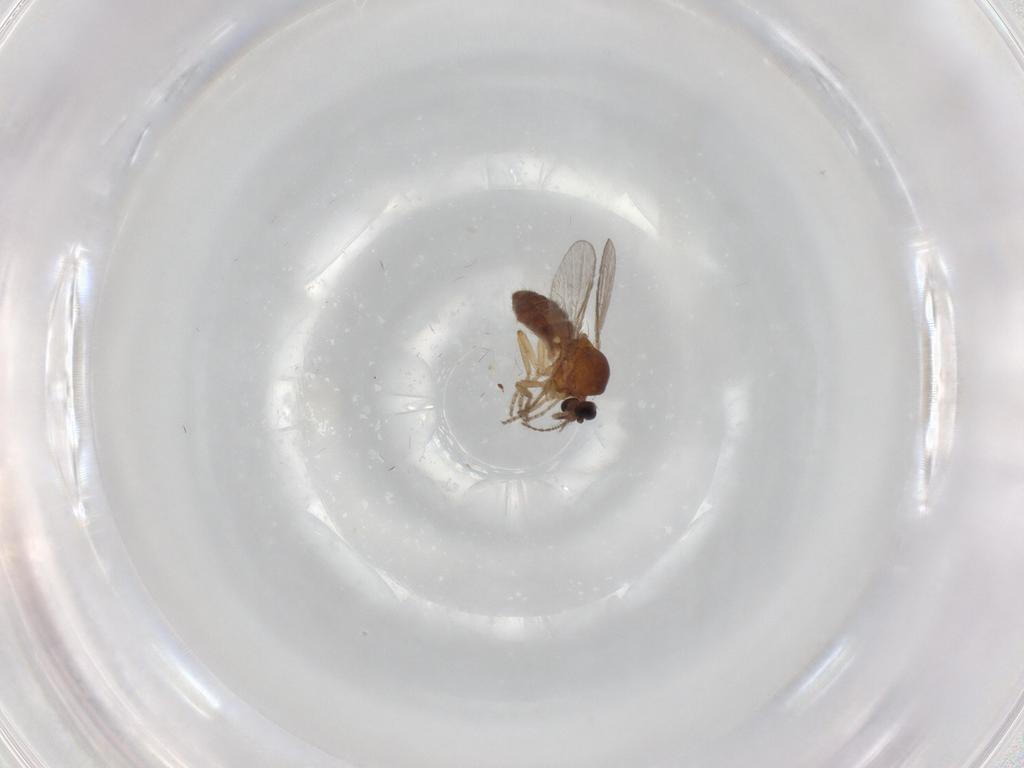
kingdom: Animalia
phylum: Arthropoda
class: Insecta
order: Diptera
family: Ceratopogonidae
